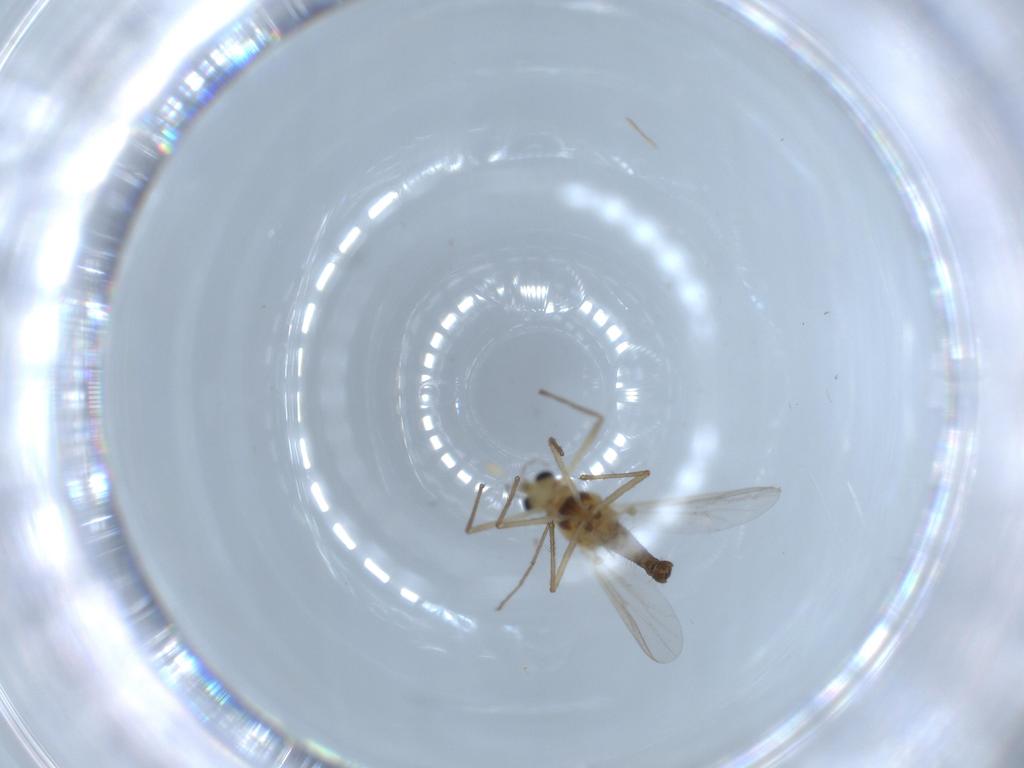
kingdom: Animalia
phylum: Arthropoda
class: Insecta
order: Diptera
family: Chironomidae
